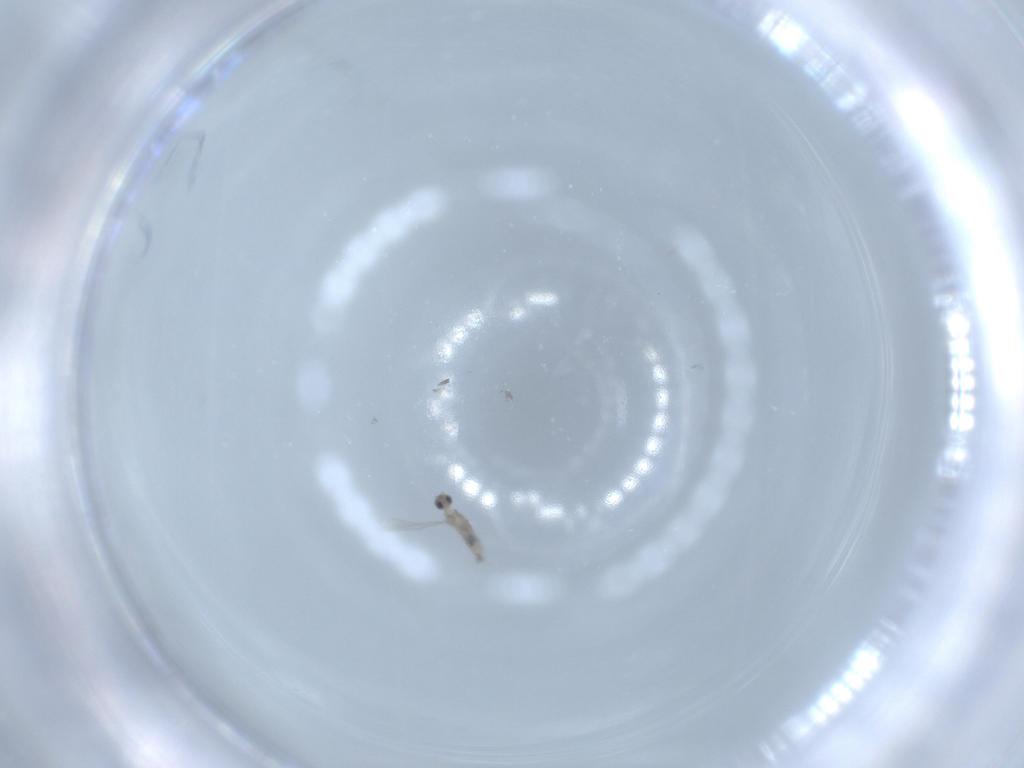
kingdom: Animalia
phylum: Arthropoda
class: Insecta
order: Diptera
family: Cecidomyiidae
